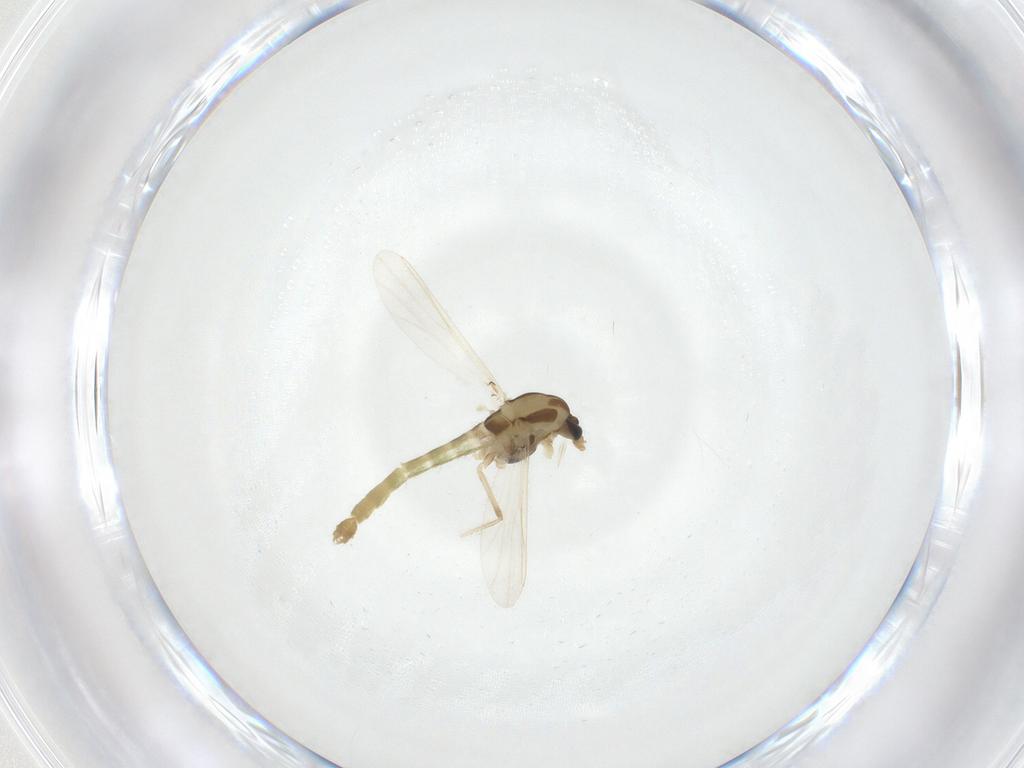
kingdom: Animalia
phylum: Arthropoda
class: Insecta
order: Diptera
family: Chironomidae
